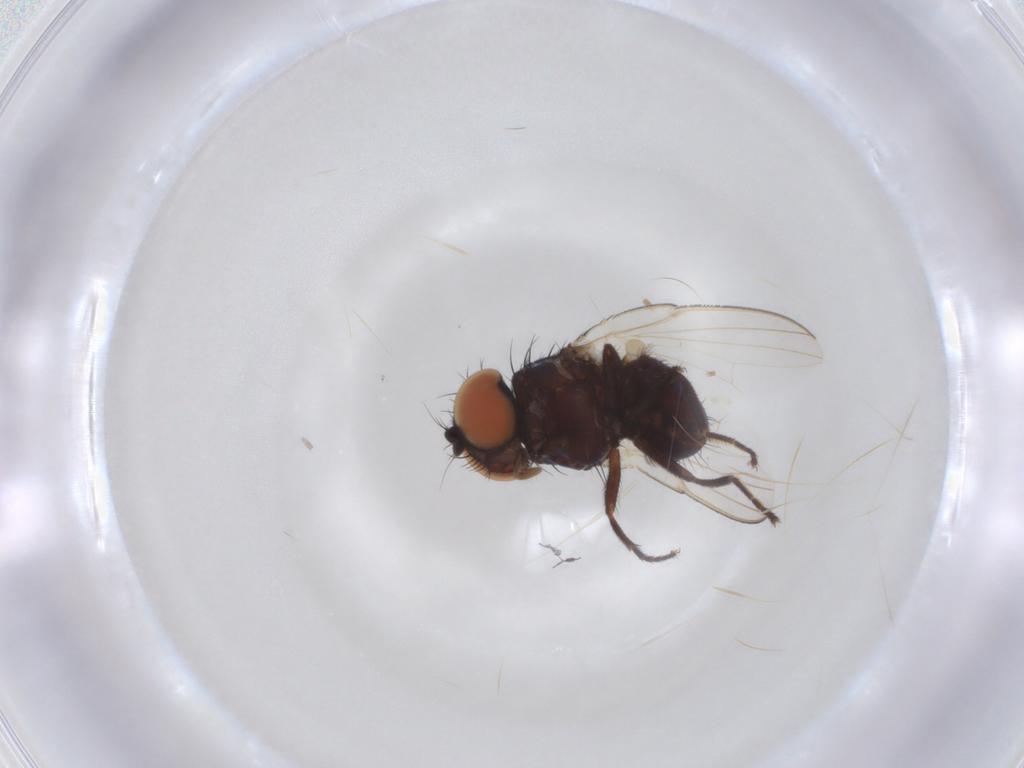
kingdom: Animalia
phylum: Arthropoda
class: Insecta
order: Diptera
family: Milichiidae
